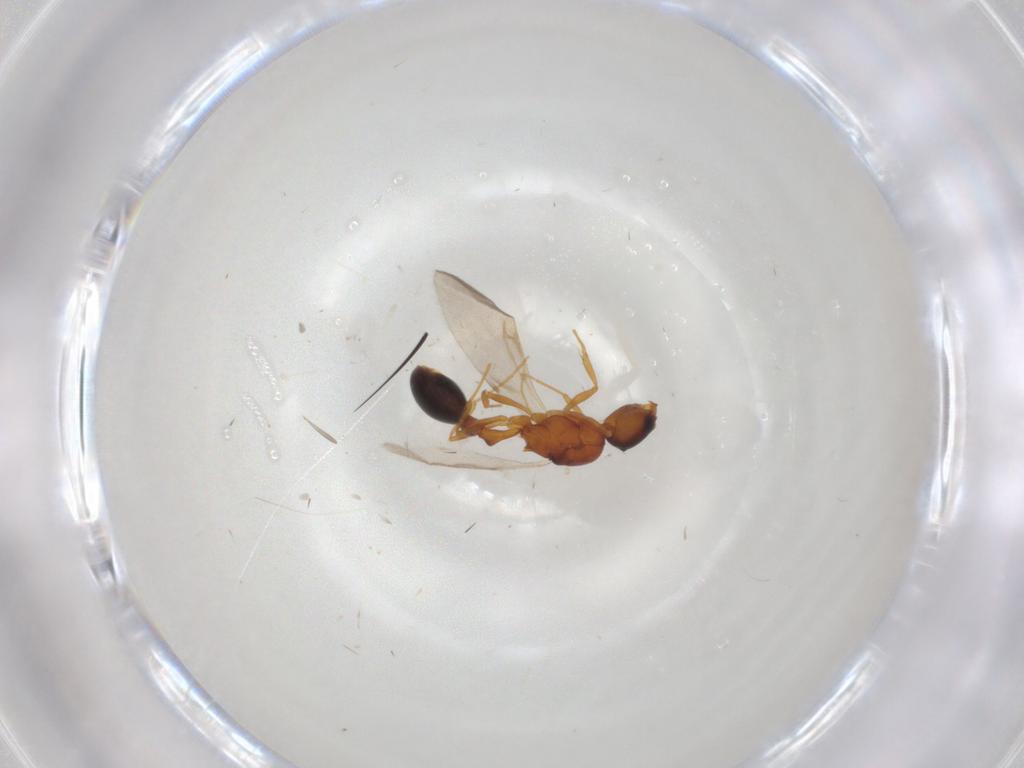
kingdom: Animalia
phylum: Arthropoda
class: Insecta
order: Hymenoptera
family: Formicidae
